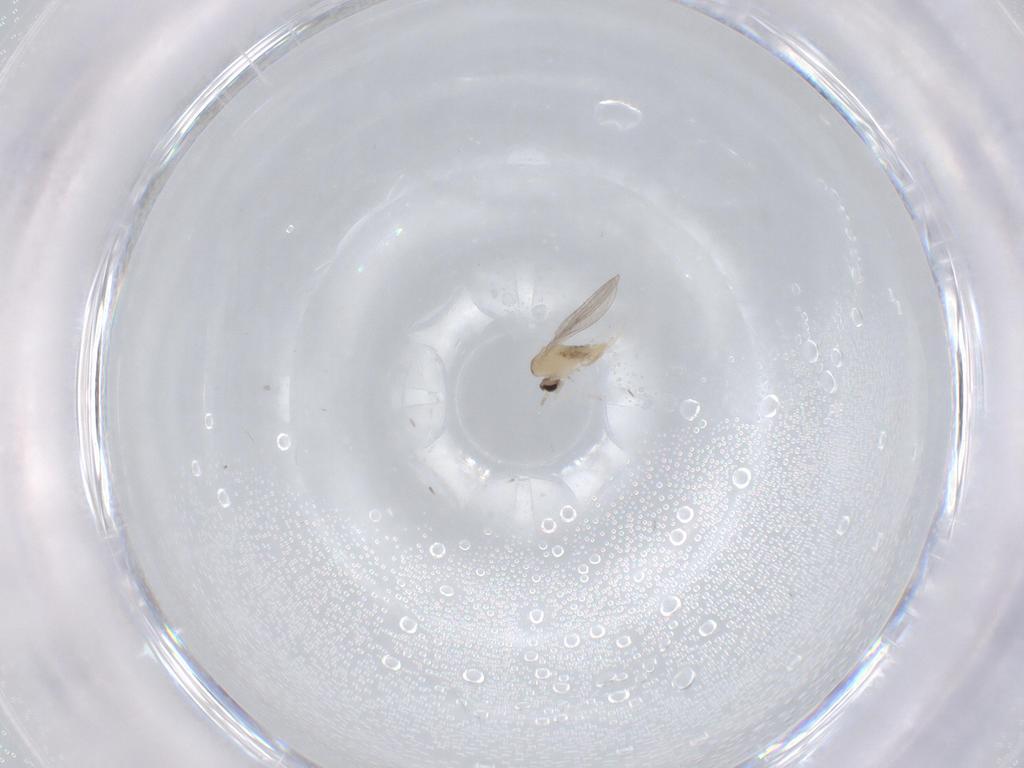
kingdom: Animalia
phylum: Arthropoda
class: Insecta
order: Diptera
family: Cecidomyiidae
